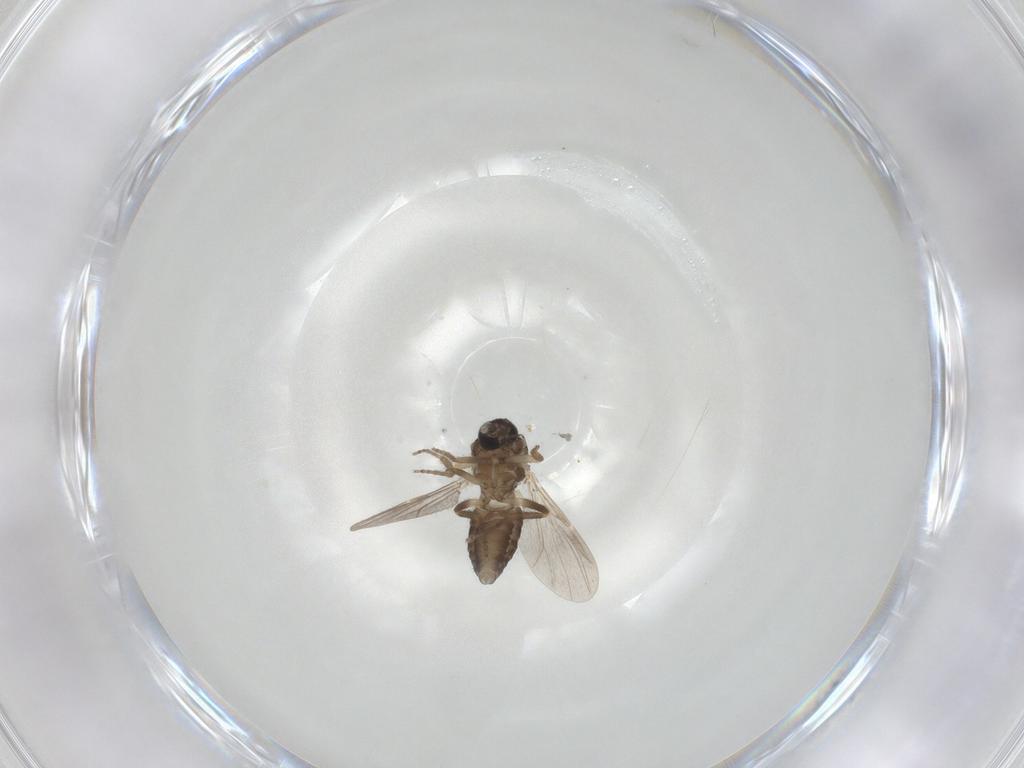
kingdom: Animalia
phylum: Arthropoda
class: Insecta
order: Diptera
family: Ceratopogonidae
